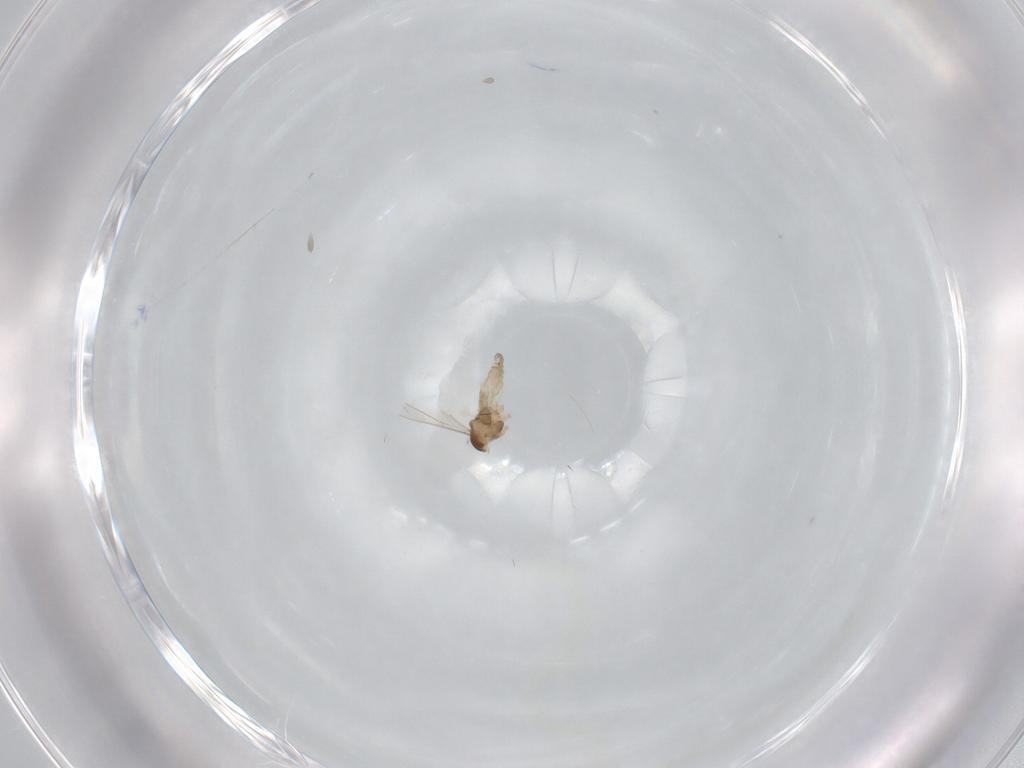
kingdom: Animalia
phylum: Arthropoda
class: Insecta
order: Diptera
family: Cecidomyiidae
